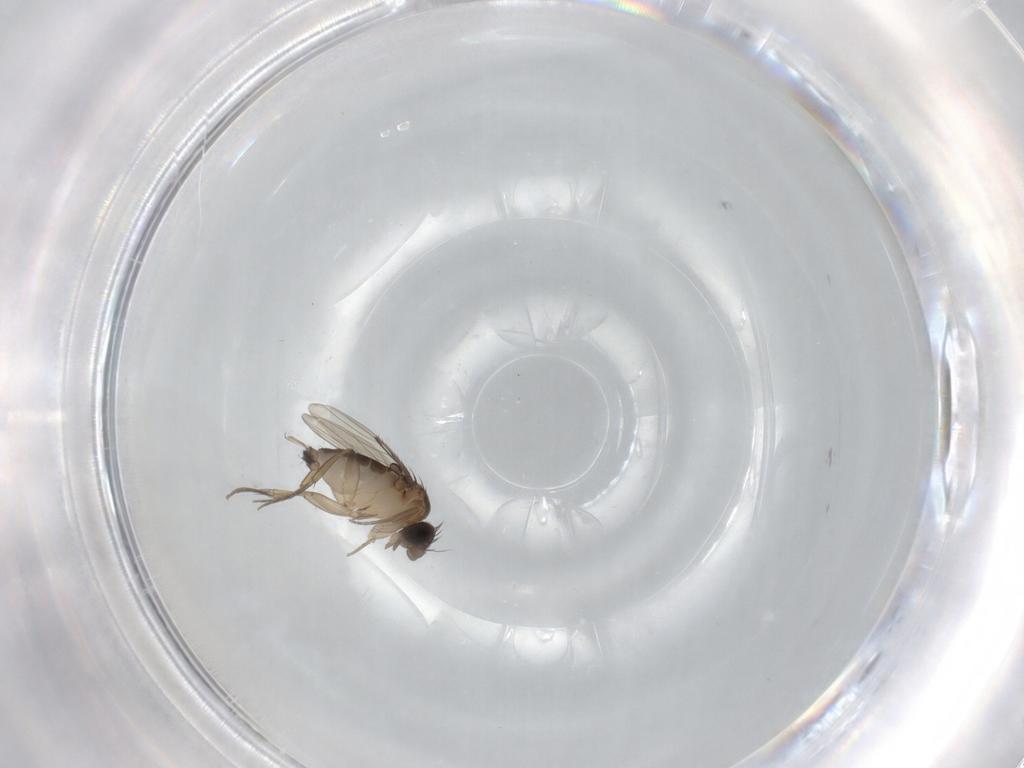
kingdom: Animalia
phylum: Arthropoda
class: Insecta
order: Diptera
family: Phoridae
